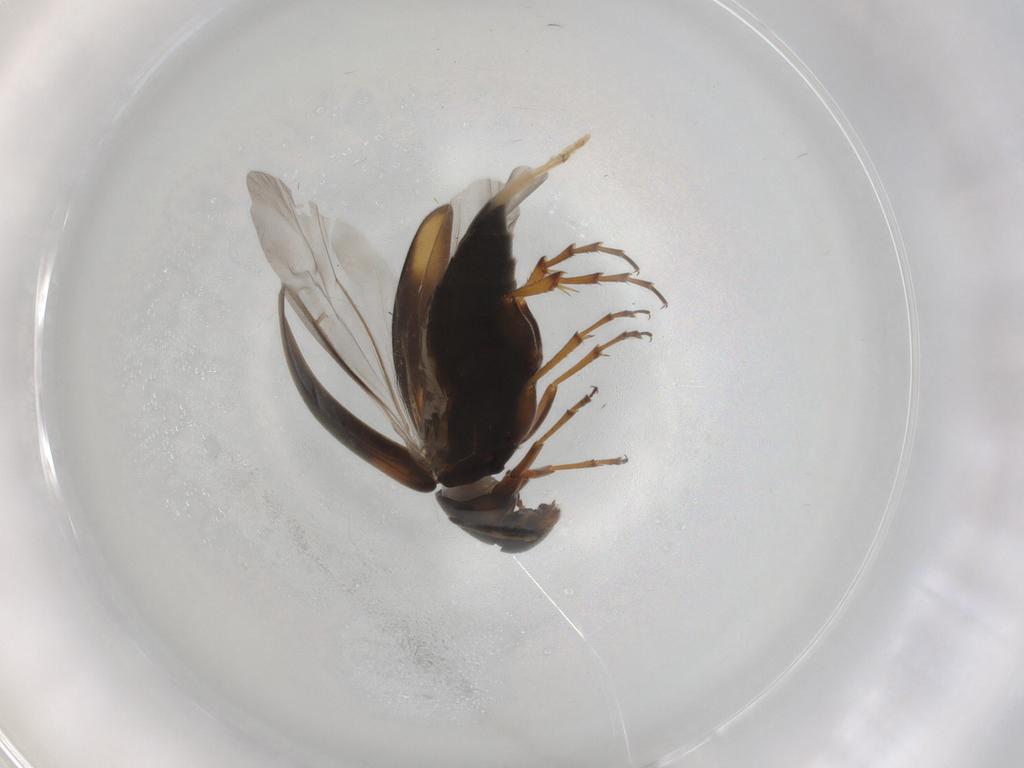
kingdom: Animalia
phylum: Arthropoda
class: Insecta
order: Coleoptera
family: Scraptiidae
